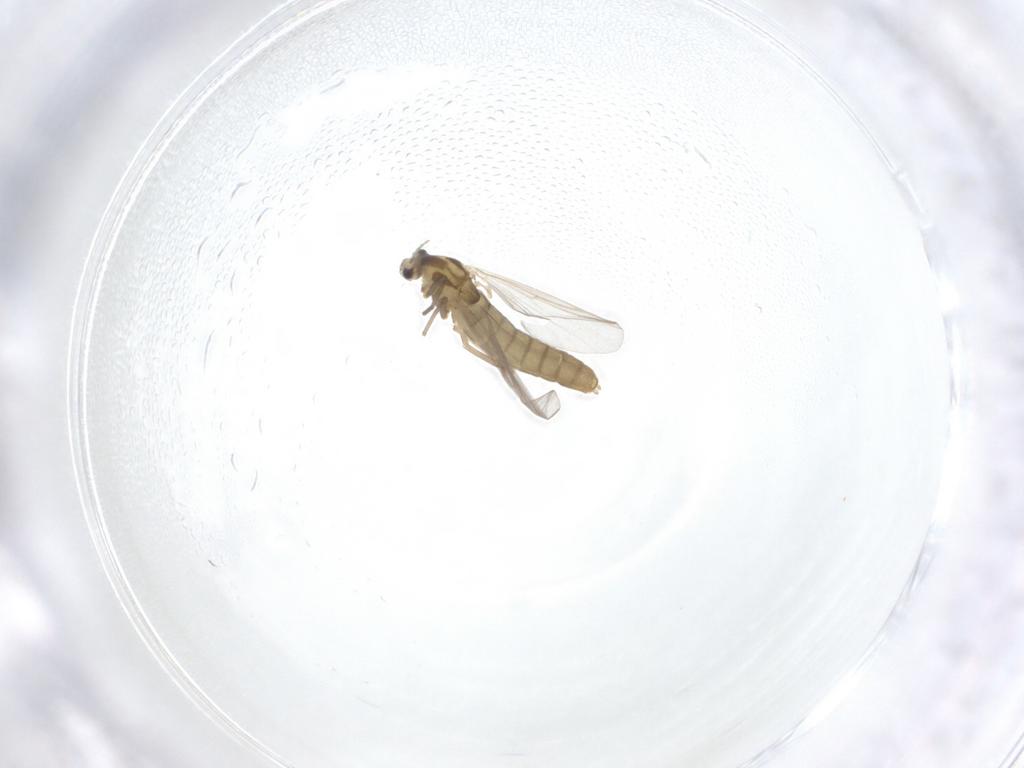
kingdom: Animalia
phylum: Arthropoda
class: Insecta
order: Diptera
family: Chironomidae
